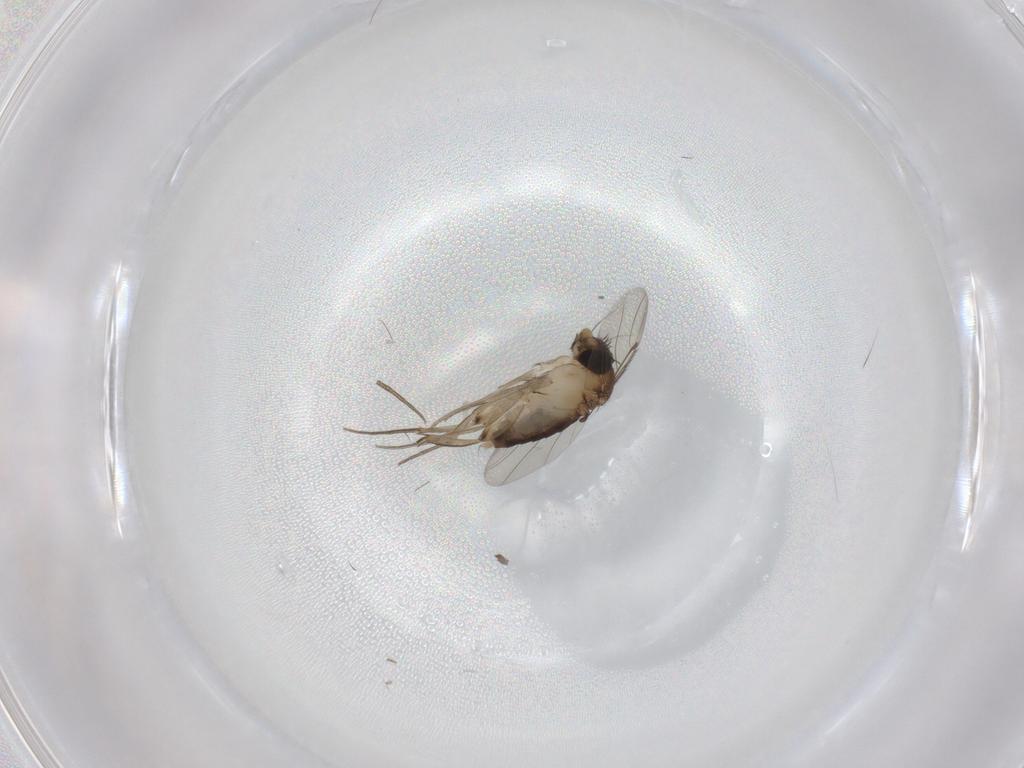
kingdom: Animalia
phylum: Arthropoda
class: Insecta
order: Diptera
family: Phoridae
